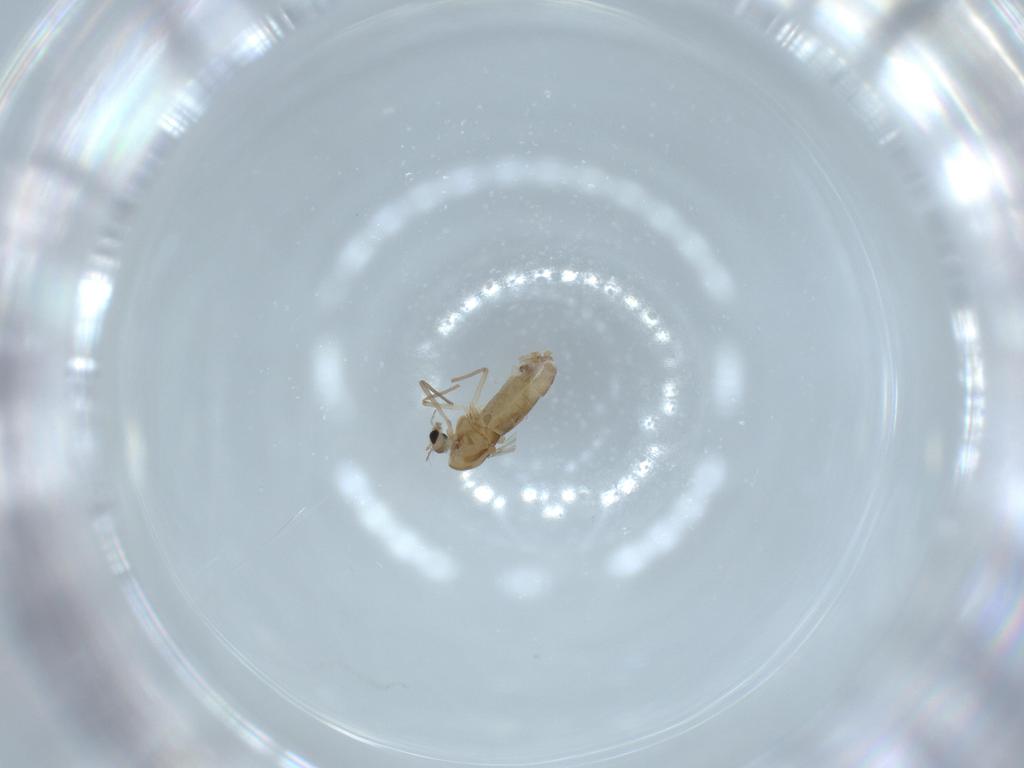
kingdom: Animalia
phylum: Arthropoda
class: Insecta
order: Diptera
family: Chironomidae
